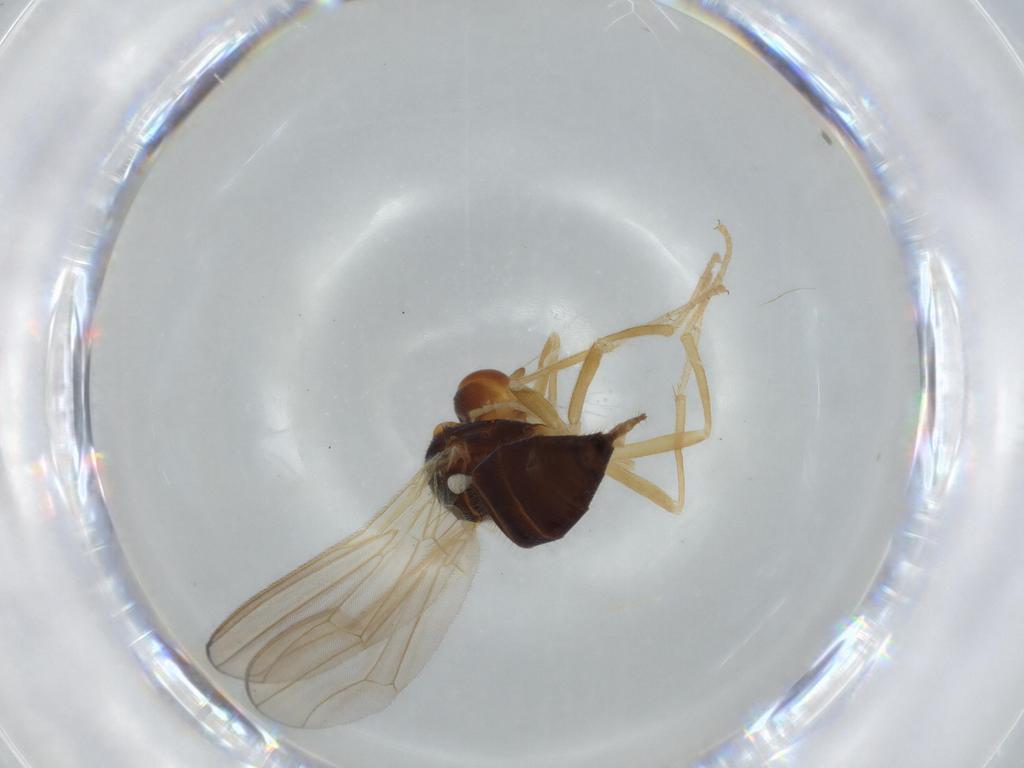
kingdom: Animalia
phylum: Arthropoda
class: Insecta
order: Diptera
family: Psilidae
